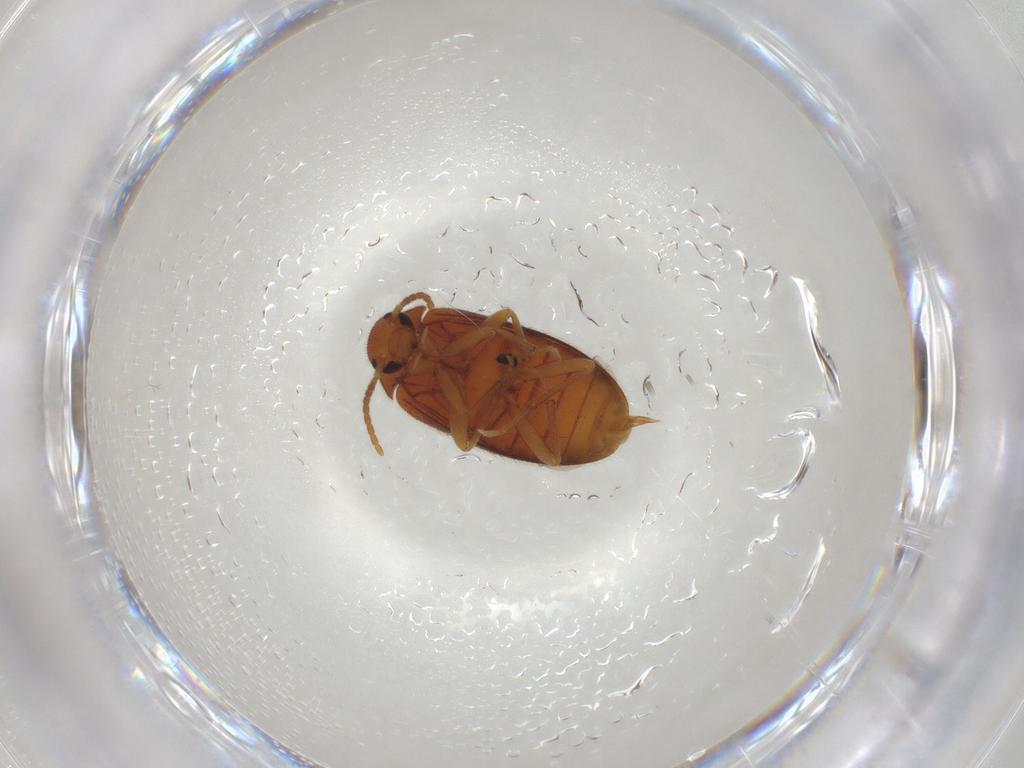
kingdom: Animalia
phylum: Arthropoda
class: Insecta
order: Coleoptera
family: Scraptiidae
